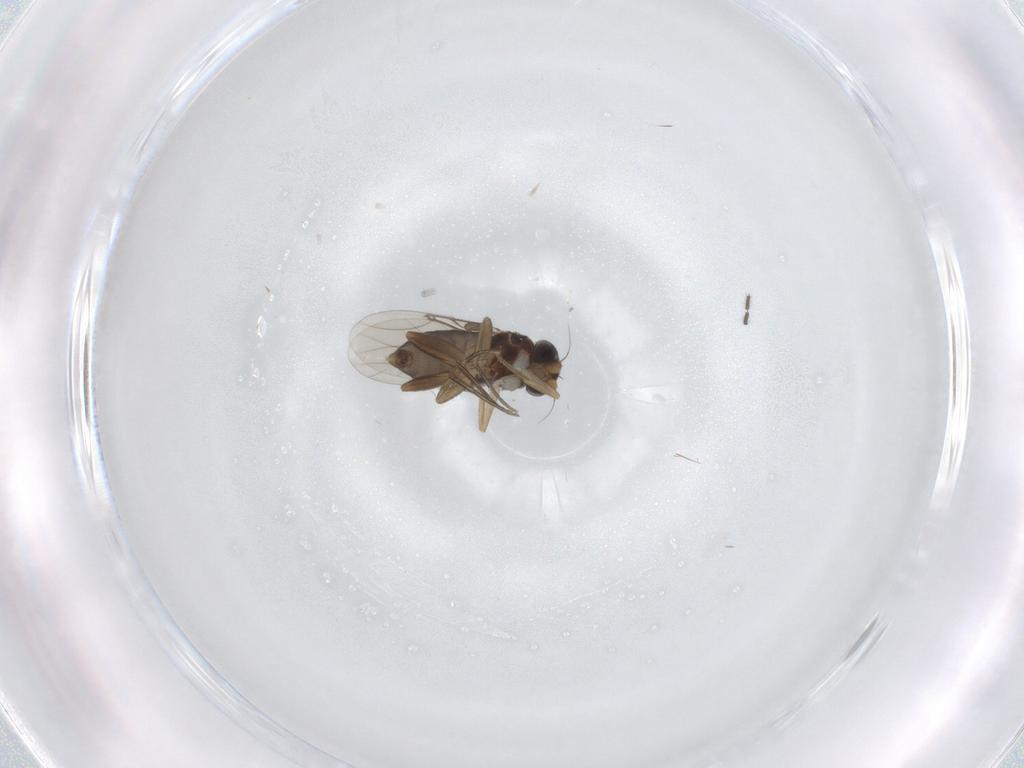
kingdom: Animalia
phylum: Arthropoda
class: Insecta
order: Diptera
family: Phoridae
